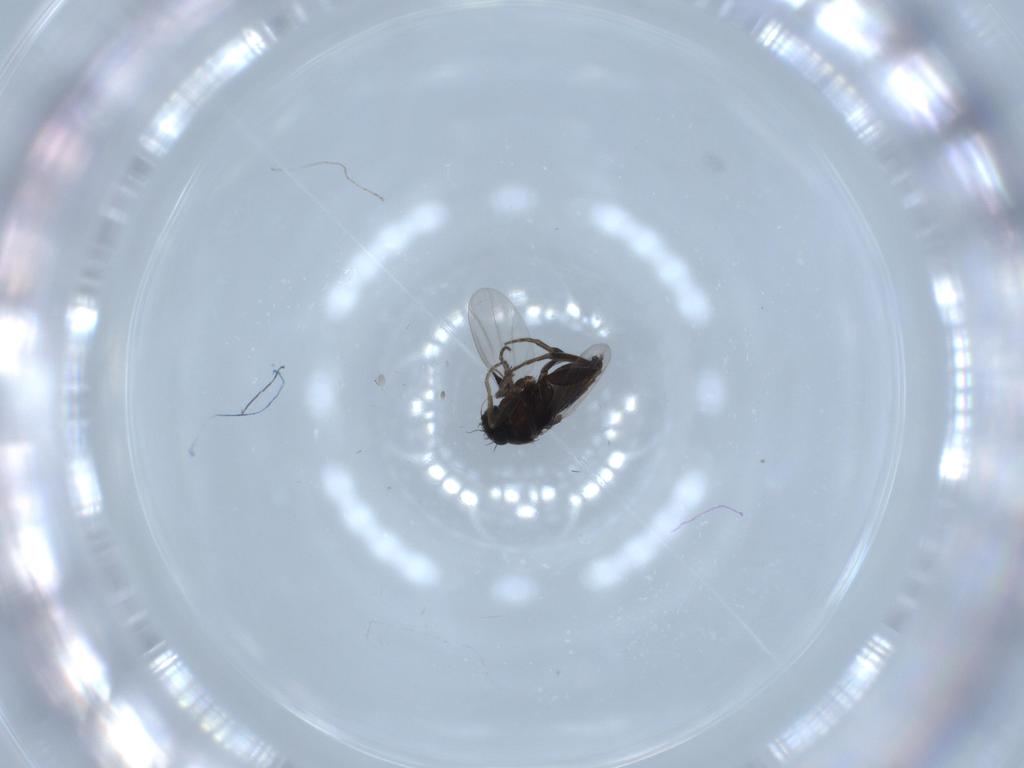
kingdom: Animalia
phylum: Arthropoda
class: Insecta
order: Diptera
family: Phoridae
